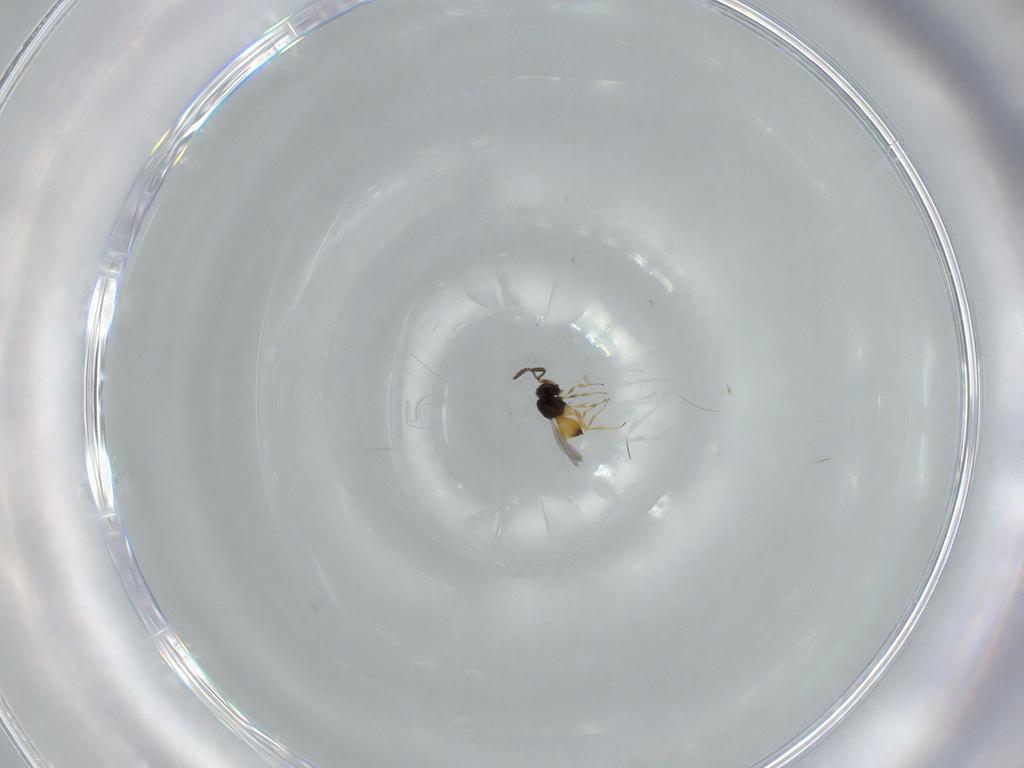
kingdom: Animalia
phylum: Arthropoda
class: Insecta
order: Hymenoptera
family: Scelionidae
